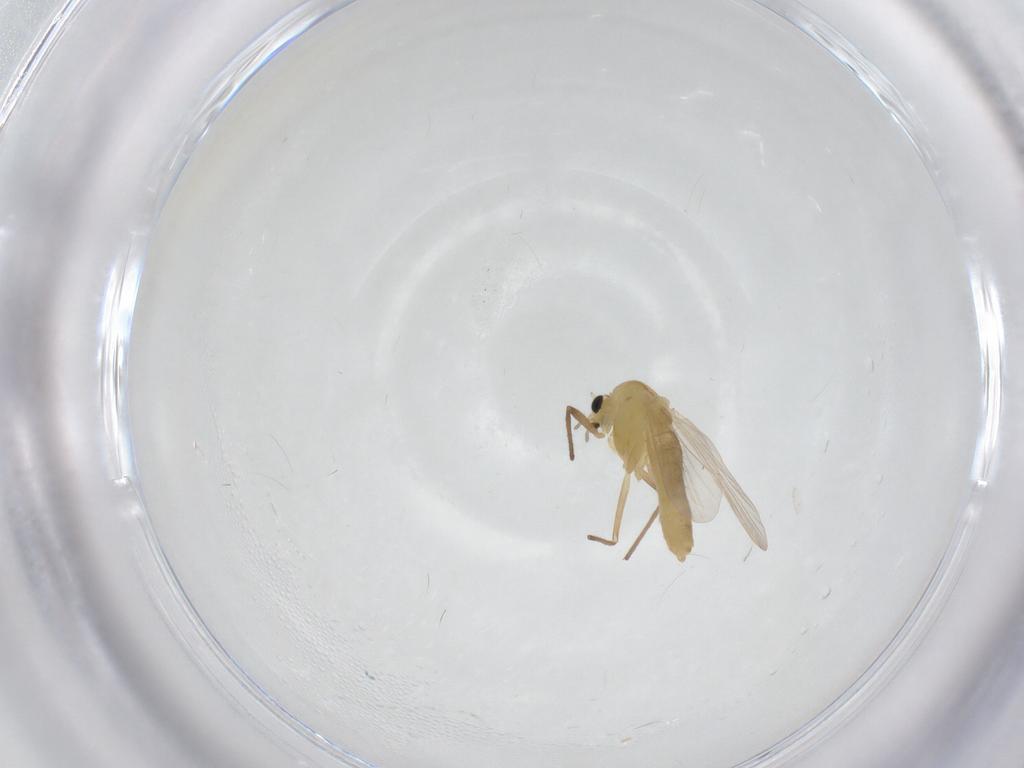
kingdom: Animalia
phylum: Arthropoda
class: Insecta
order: Diptera
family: Chironomidae
